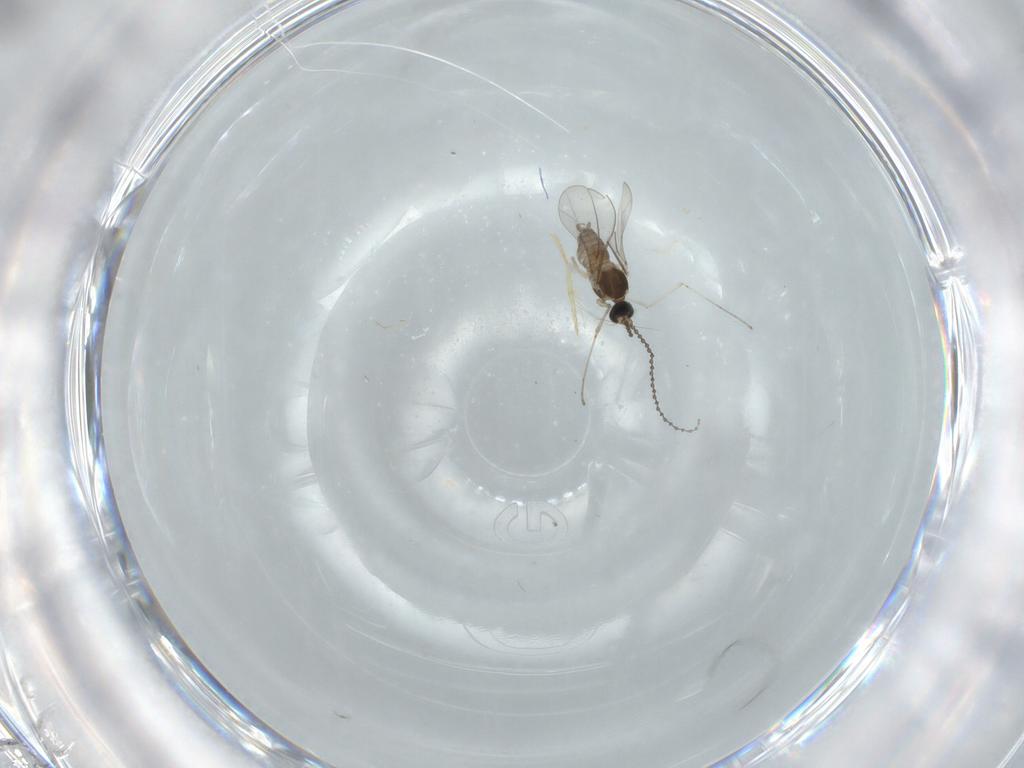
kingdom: Animalia
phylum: Arthropoda
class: Insecta
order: Diptera
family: Cecidomyiidae
